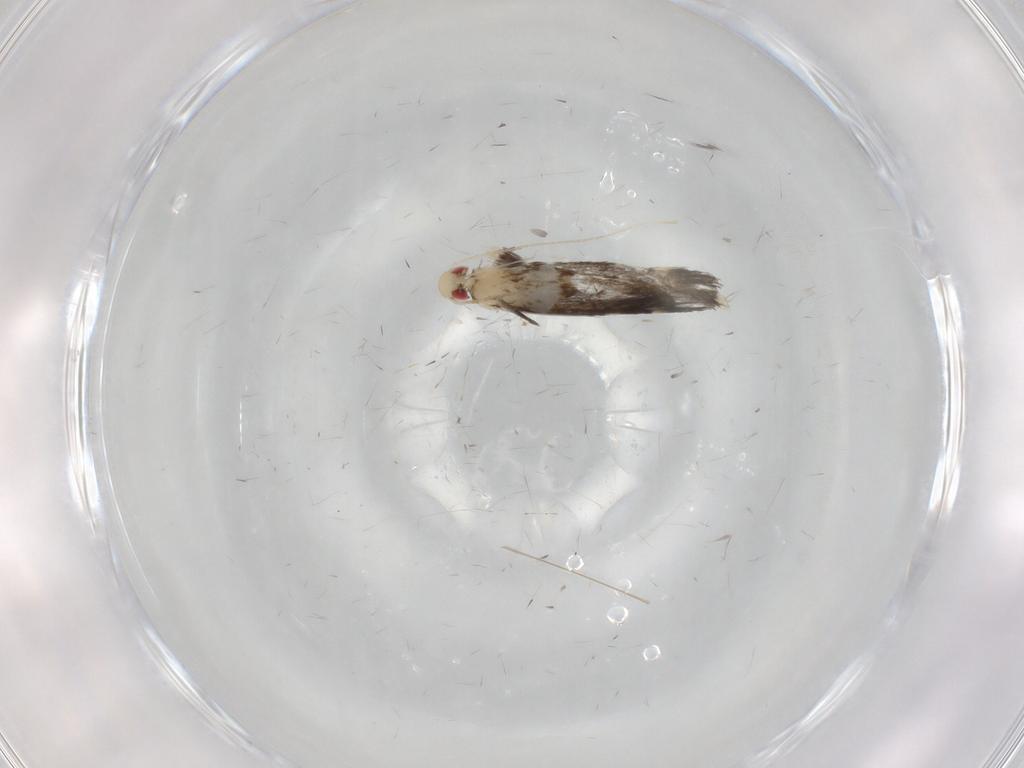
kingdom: Animalia
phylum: Arthropoda
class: Insecta
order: Lepidoptera
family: Gracillariidae
